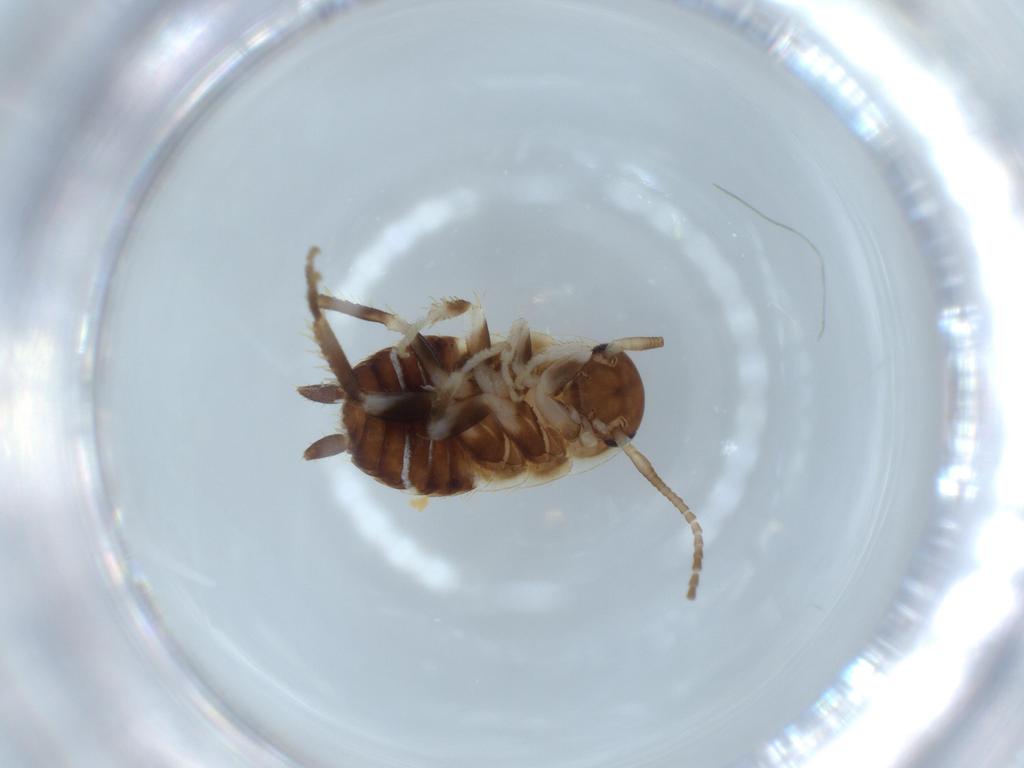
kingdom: Animalia
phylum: Arthropoda
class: Insecta
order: Blattodea
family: Ectobiidae
